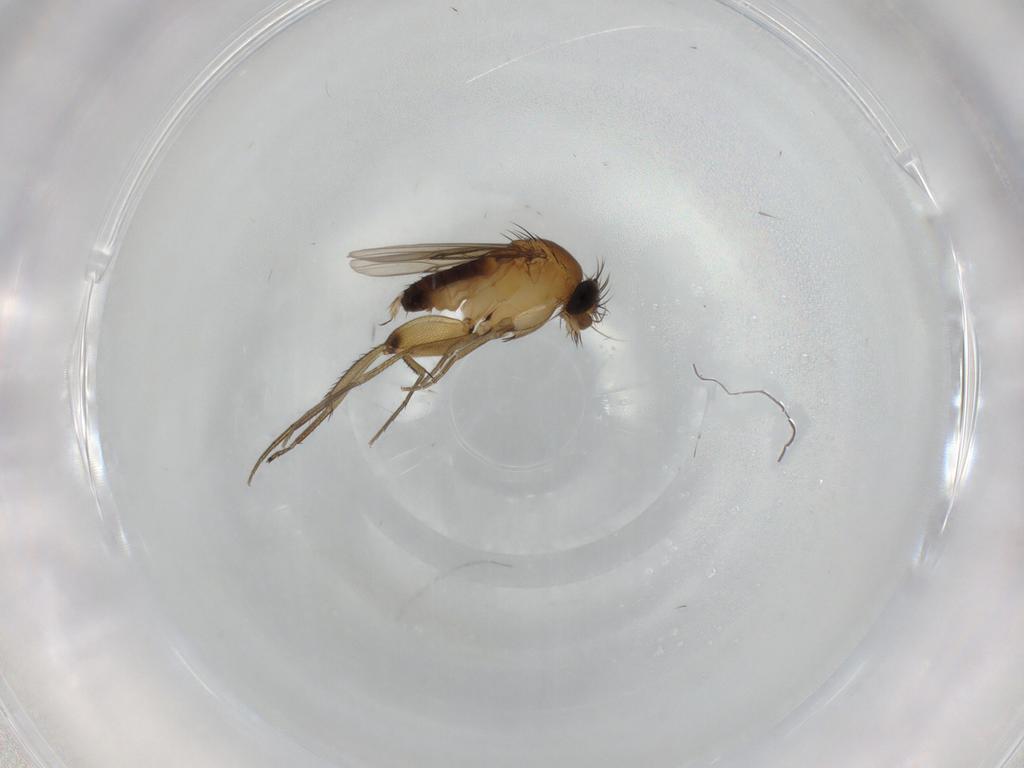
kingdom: Animalia
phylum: Arthropoda
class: Insecta
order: Diptera
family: Phoridae
